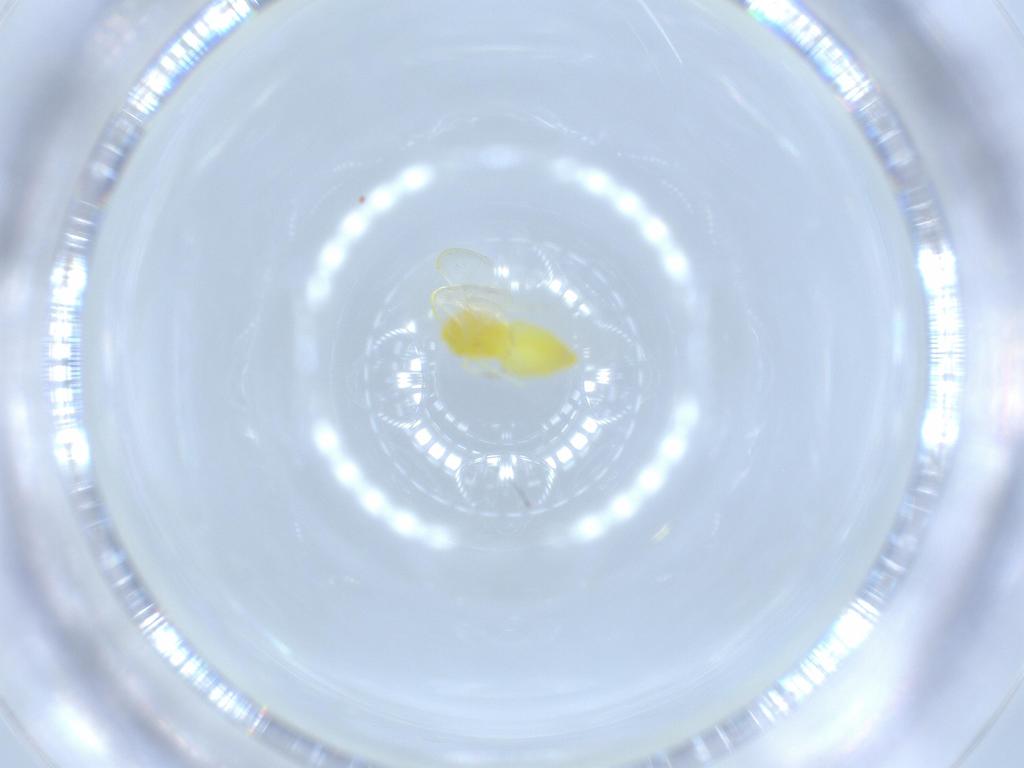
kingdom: Animalia
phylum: Arthropoda
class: Insecta
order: Hemiptera
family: Aleyrodidae
